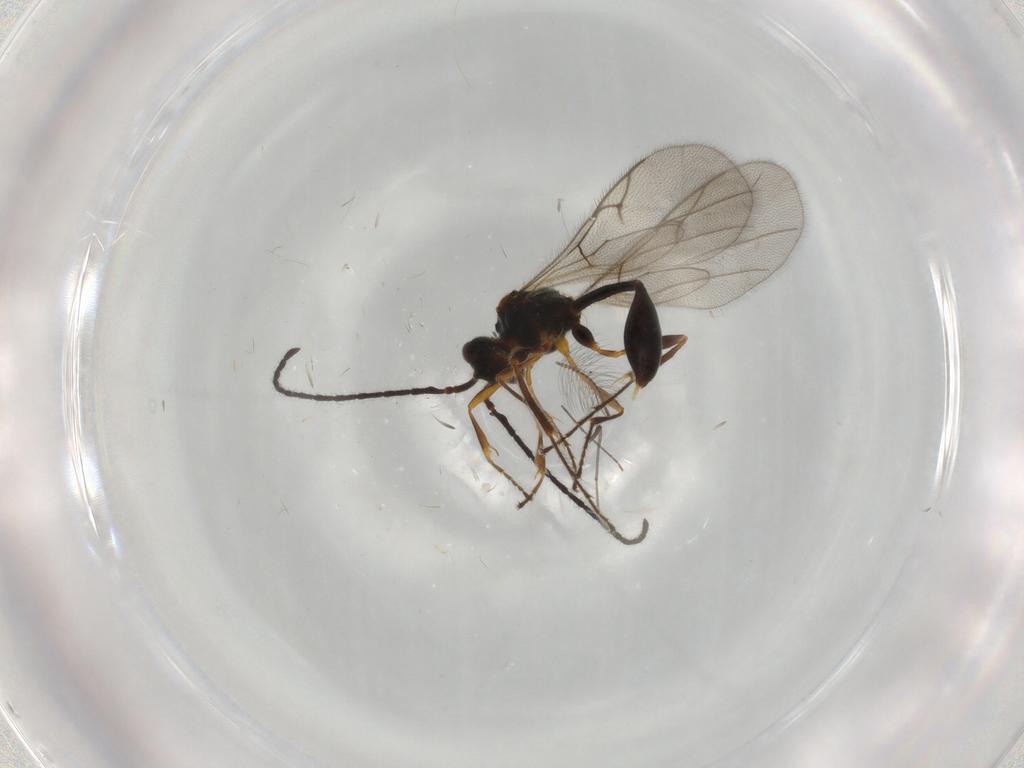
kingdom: Animalia
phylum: Arthropoda
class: Insecta
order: Hymenoptera
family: Diapriidae
